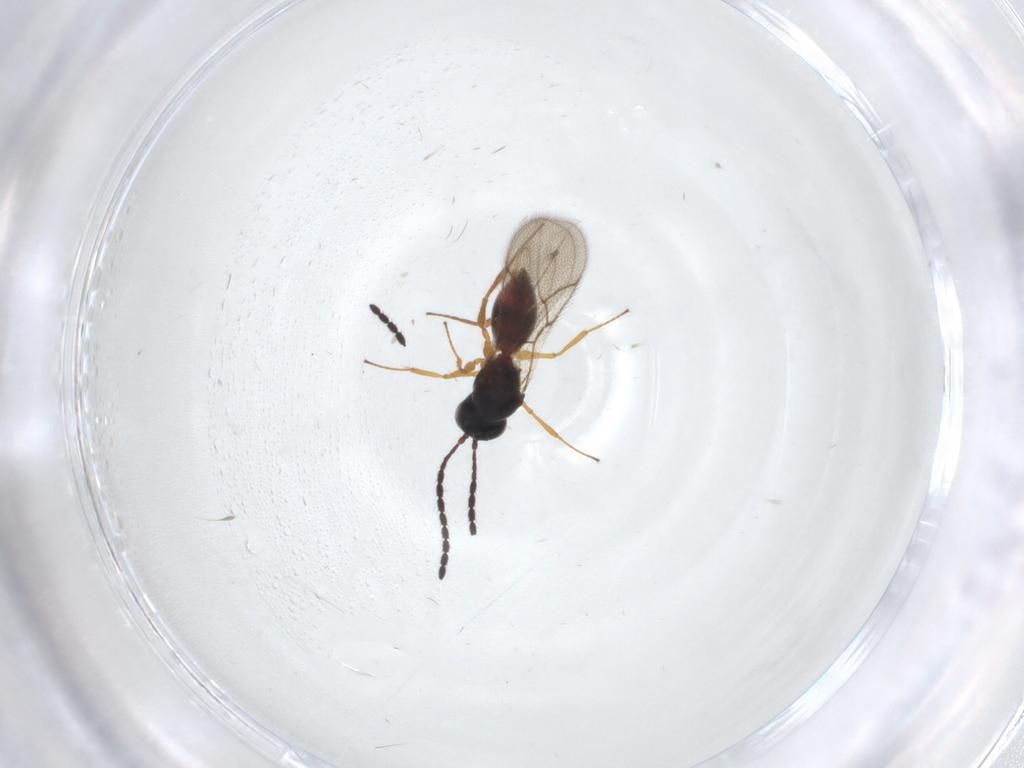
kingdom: Animalia
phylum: Arthropoda
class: Insecta
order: Hymenoptera
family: Figitidae
